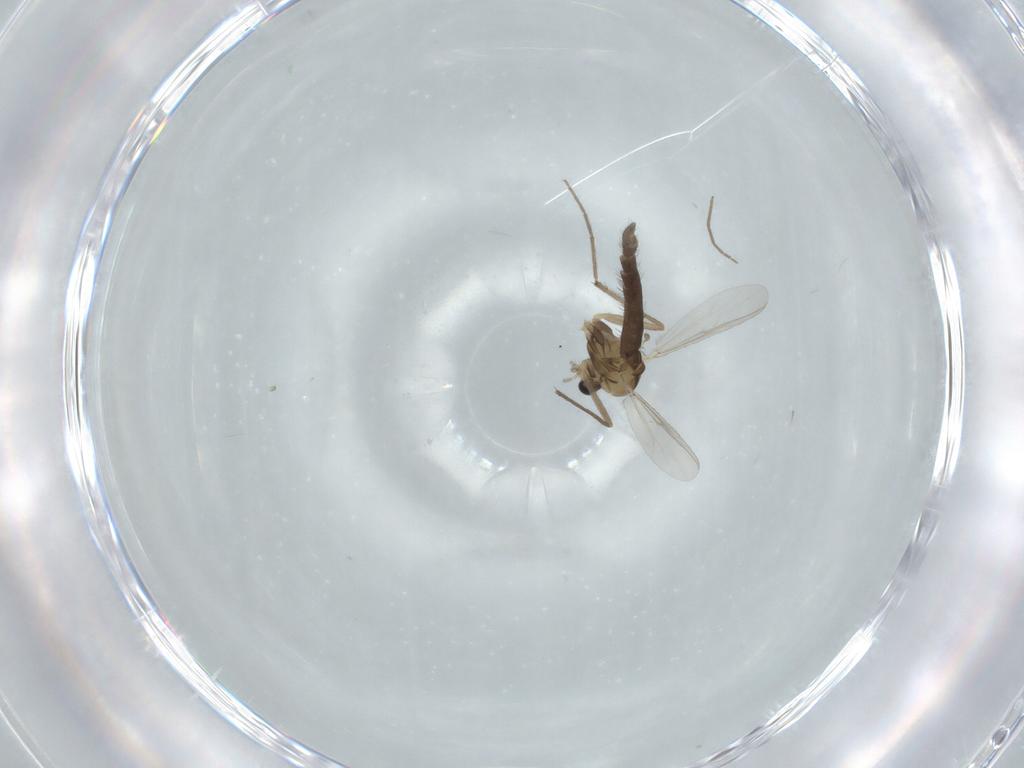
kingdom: Animalia
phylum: Arthropoda
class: Insecta
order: Diptera
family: Chironomidae
